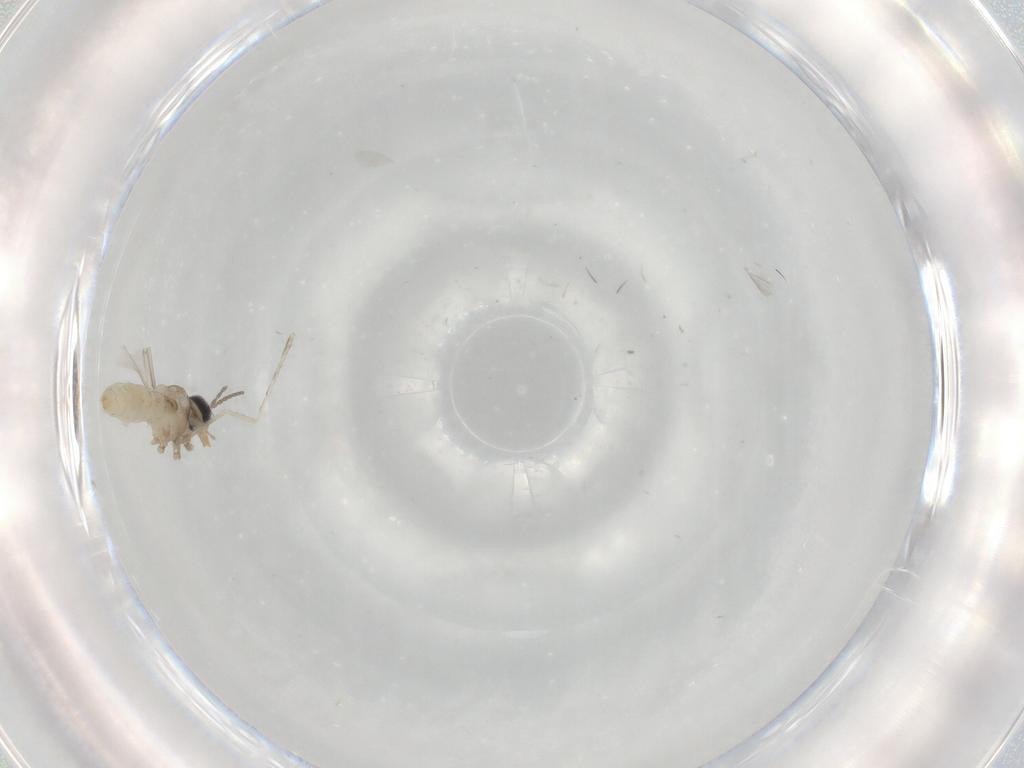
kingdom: Animalia
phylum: Arthropoda
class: Insecta
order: Diptera
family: Cecidomyiidae
